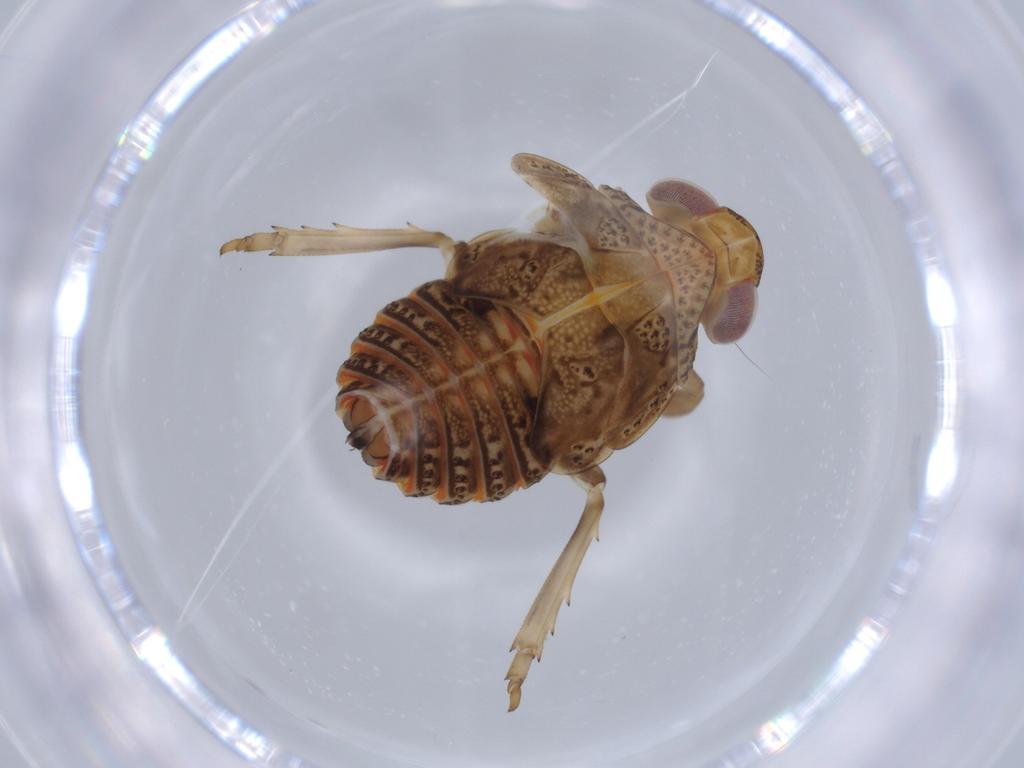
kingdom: Animalia
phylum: Arthropoda
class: Insecta
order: Hemiptera
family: Issidae
